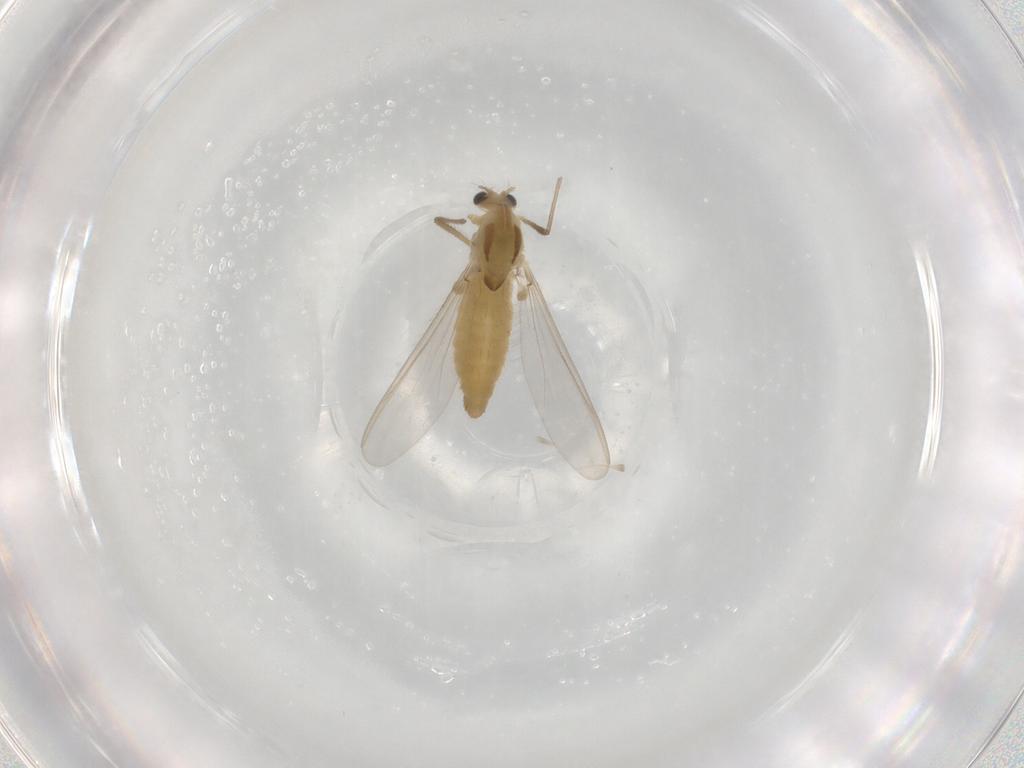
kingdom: Animalia
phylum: Arthropoda
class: Insecta
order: Diptera
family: Chironomidae
